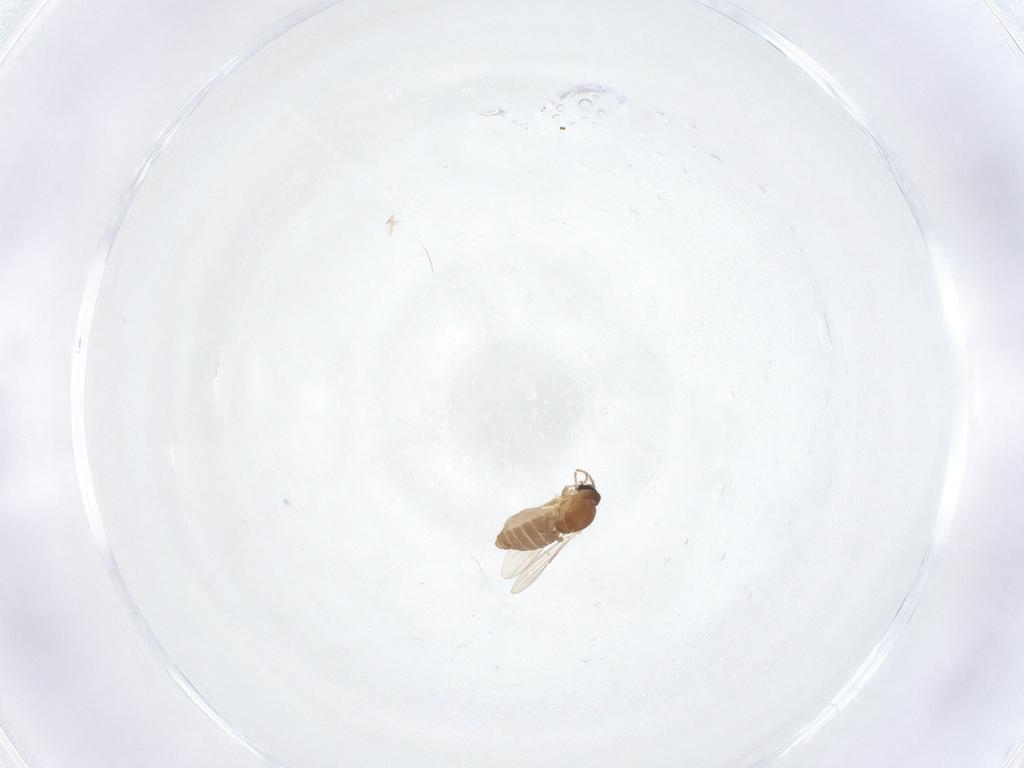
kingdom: Animalia
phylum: Arthropoda
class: Insecta
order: Diptera
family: Ceratopogonidae
